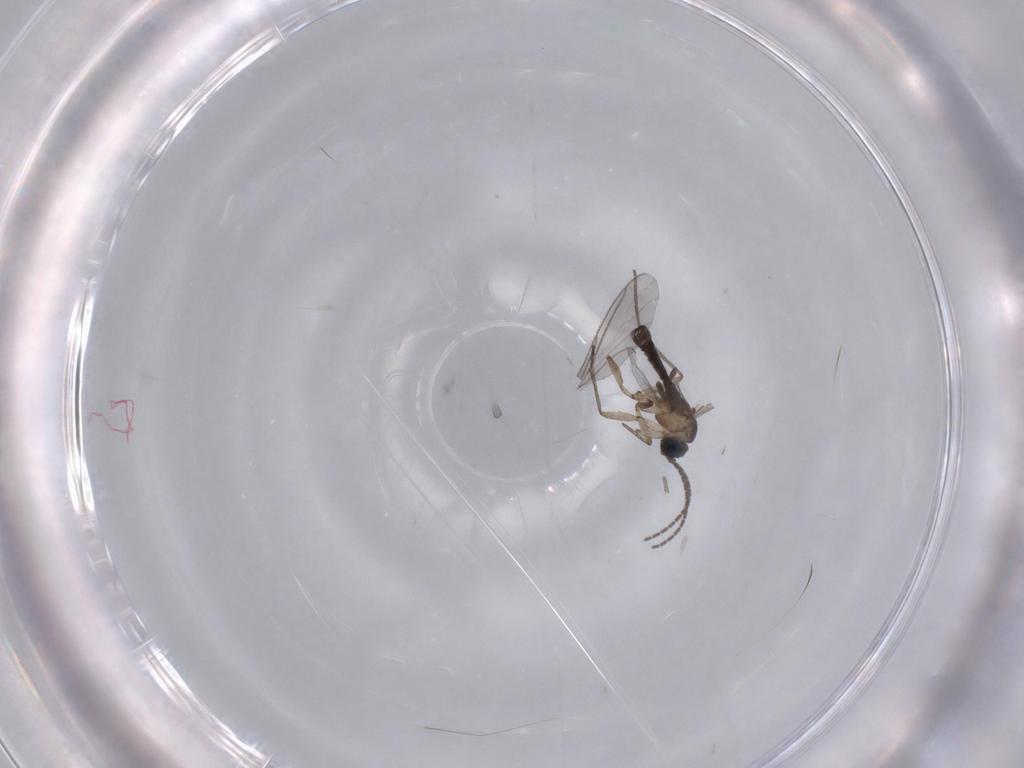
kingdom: Animalia
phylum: Arthropoda
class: Insecta
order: Diptera
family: Sciaridae
